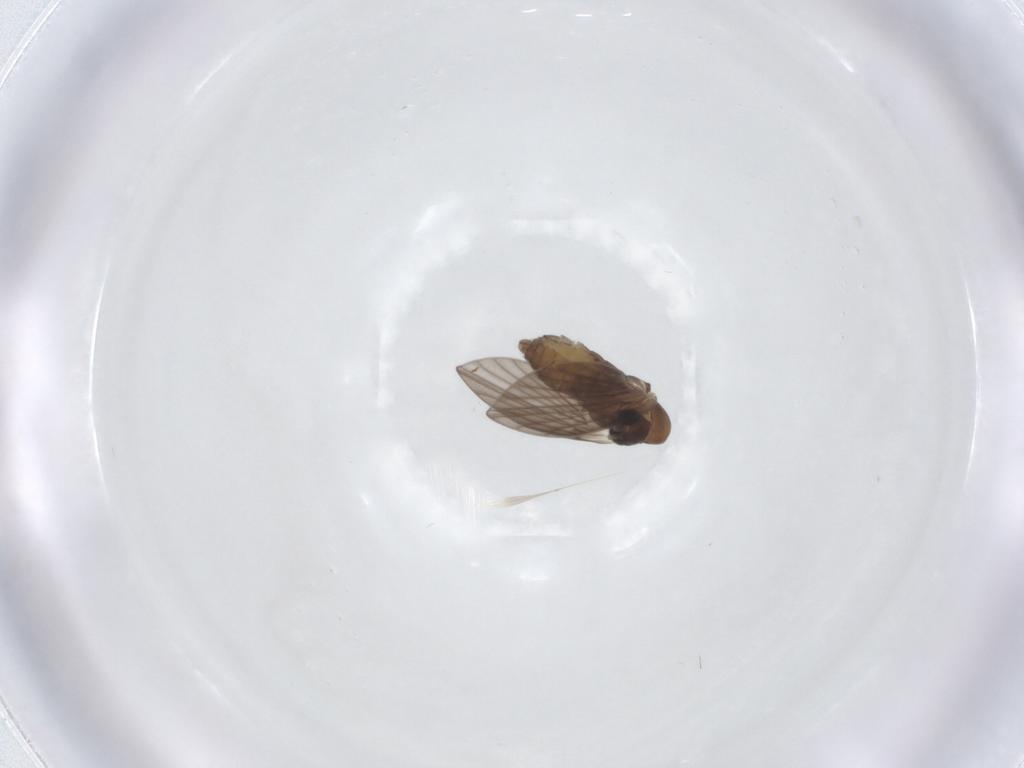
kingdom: Animalia
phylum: Arthropoda
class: Insecta
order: Diptera
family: Psychodidae
